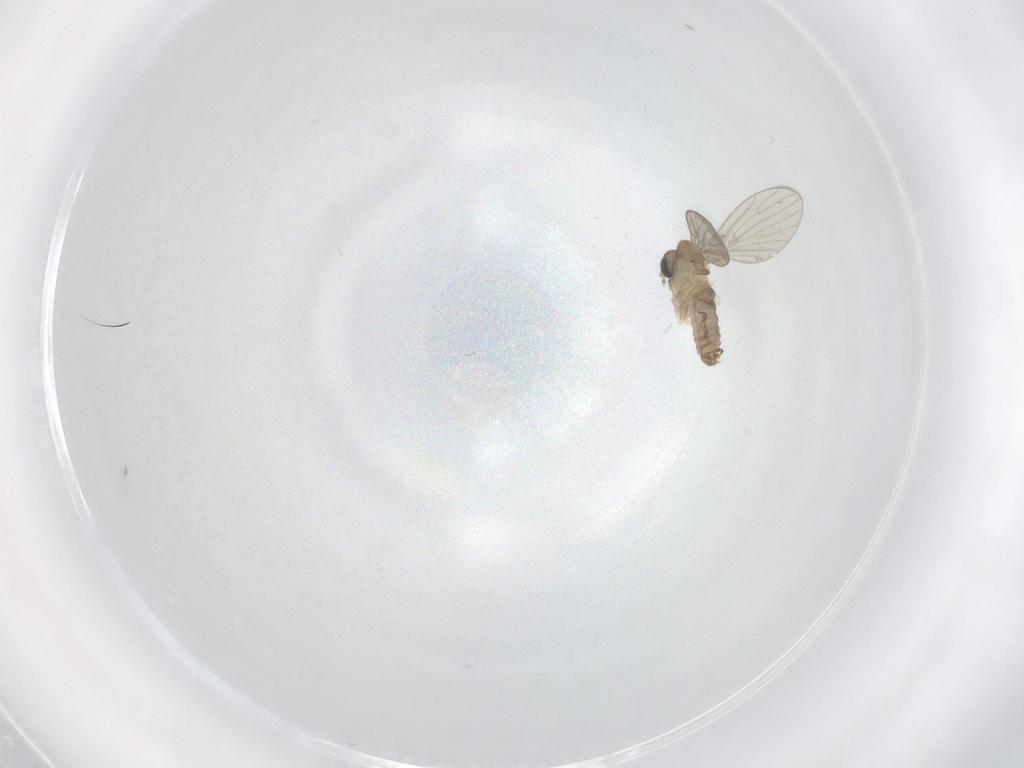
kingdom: Animalia
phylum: Arthropoda
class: Insecta
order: Diptera
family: Psychodidae
